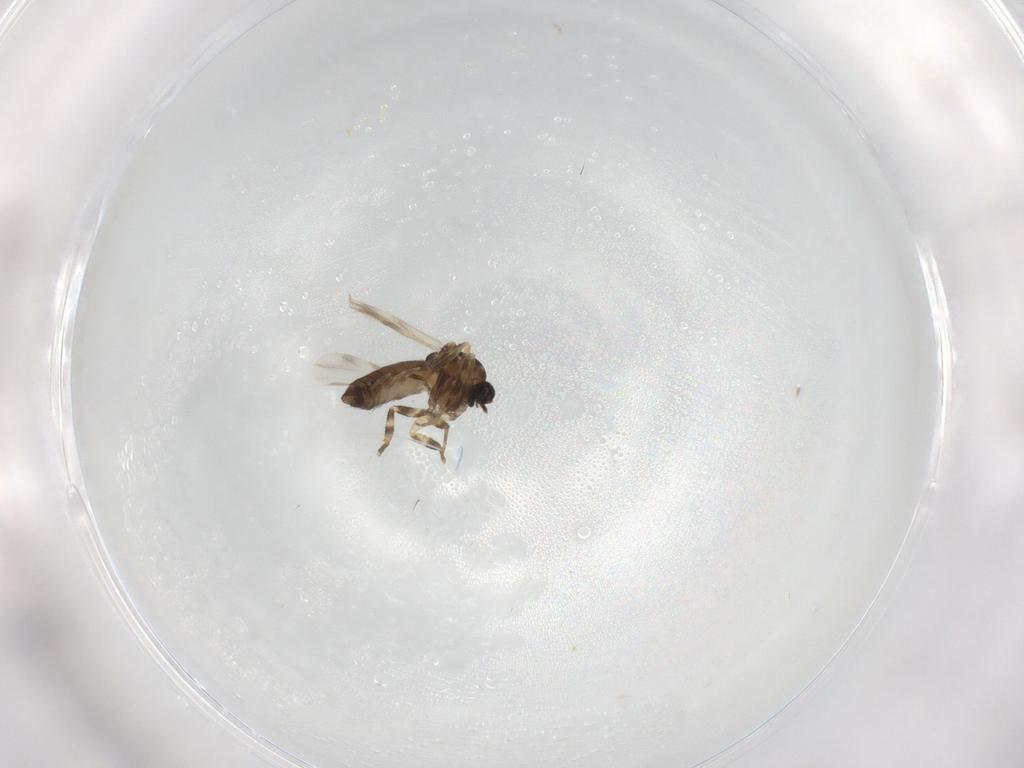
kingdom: Animalia
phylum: Arthropoda
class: Insecta
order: Diptera
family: Ceratopogonidae
